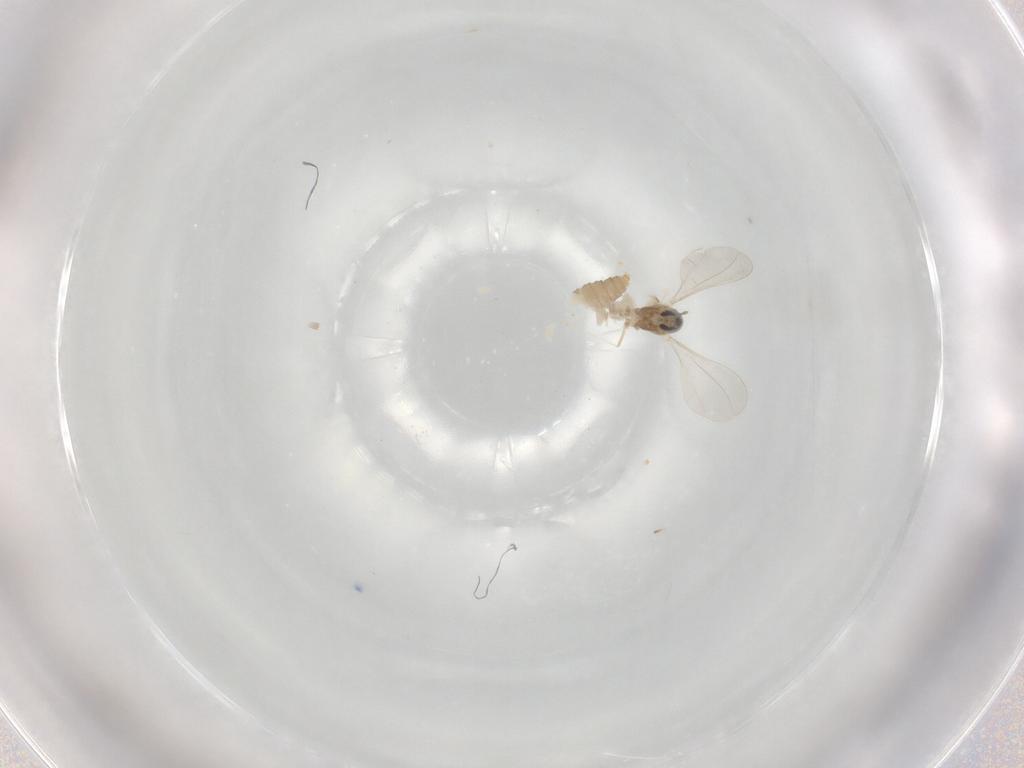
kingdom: Animalia
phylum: Arthropoda
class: Insecta
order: Diptera
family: Cecidomyiidae
